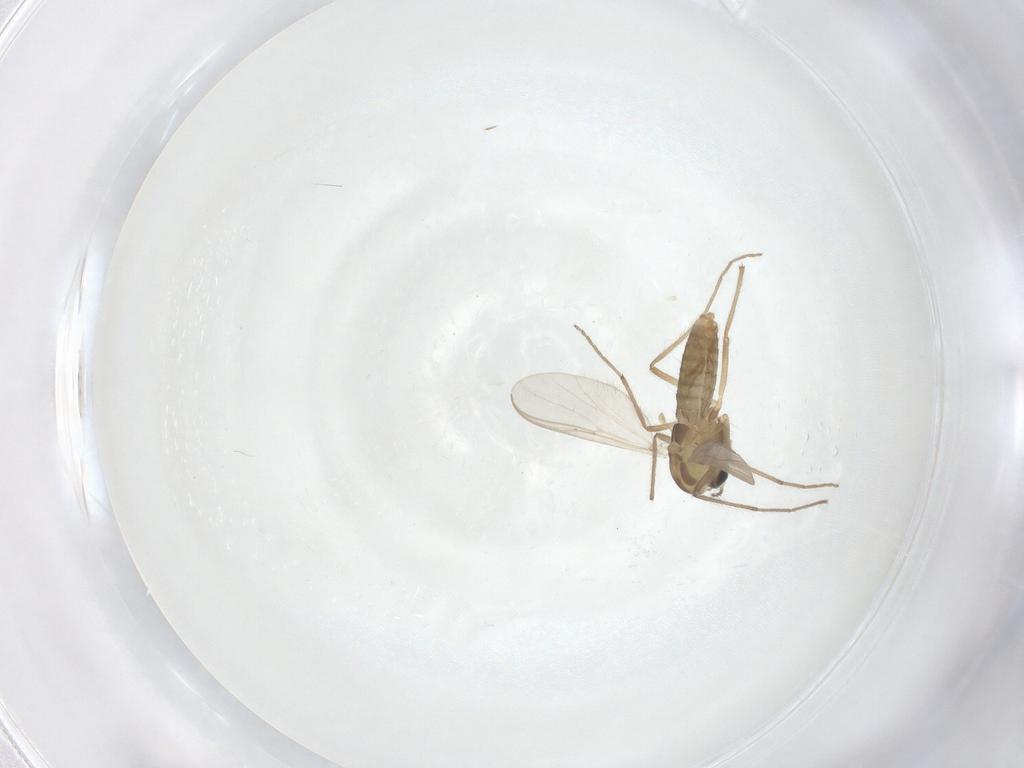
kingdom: Animalia
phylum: Arthropoda
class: Insecta
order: Diptera
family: Chironomidae
